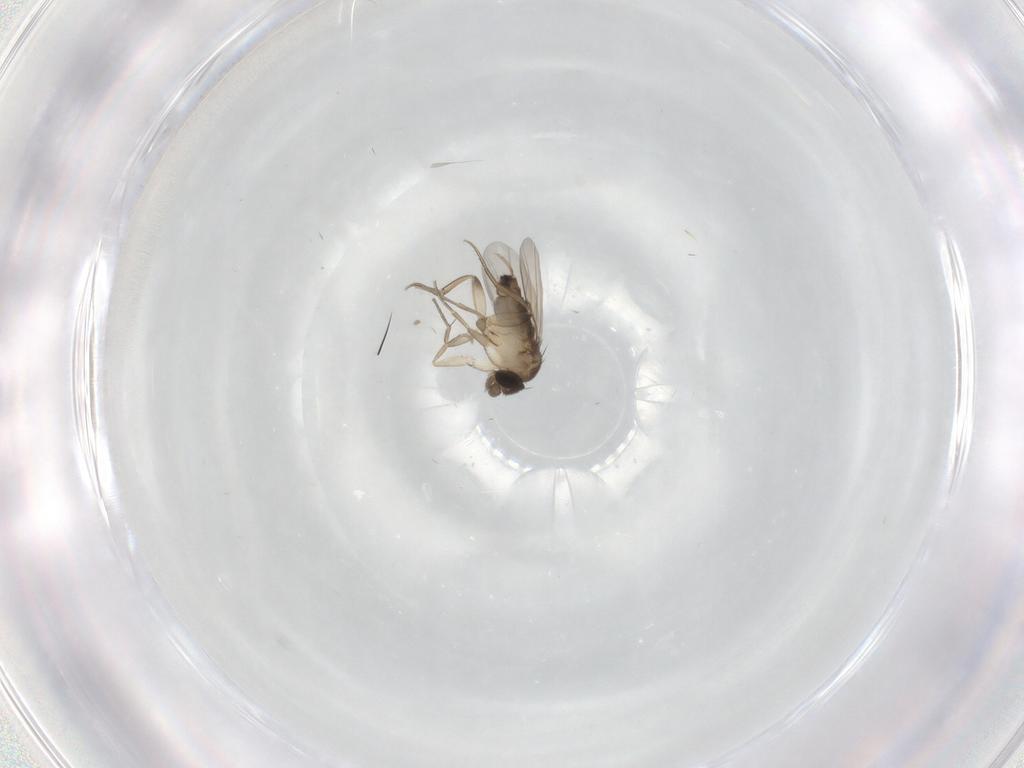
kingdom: Animalia
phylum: Arthropoda
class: Insecta
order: Diptera
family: Phoridae
